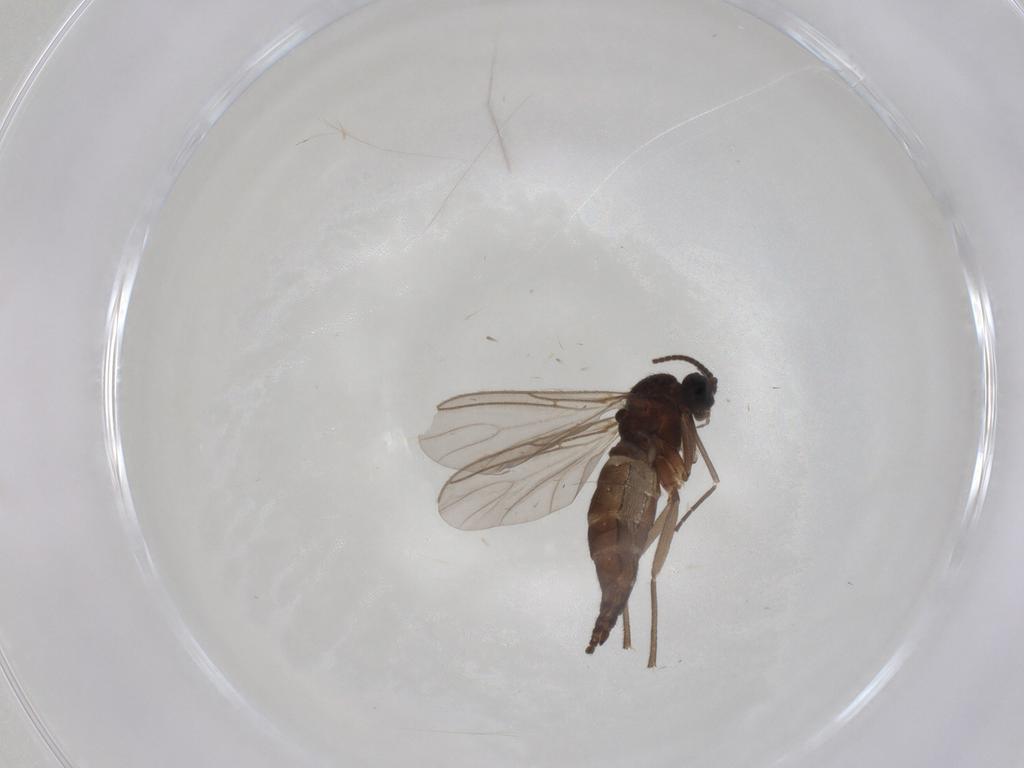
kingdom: Animalia
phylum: Arthropoda
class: Insecta
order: Diptera
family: Sciaridae
